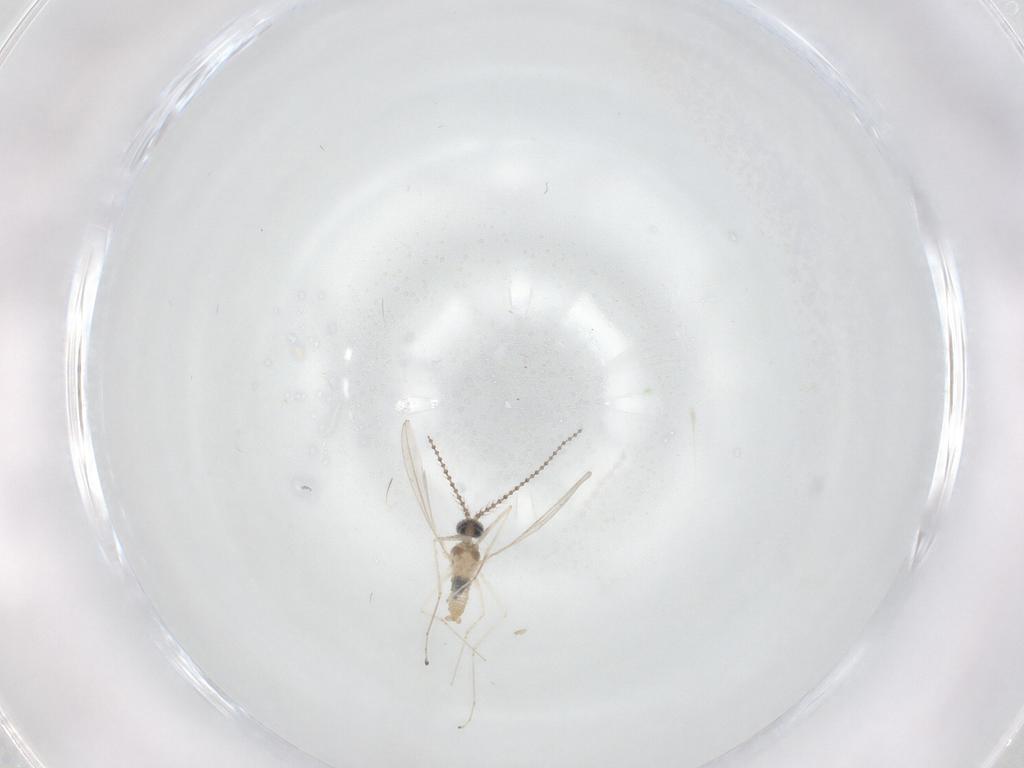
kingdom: Animalia
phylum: Arthropoda
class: Insecta
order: Diptera
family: Cecidomyiidae
